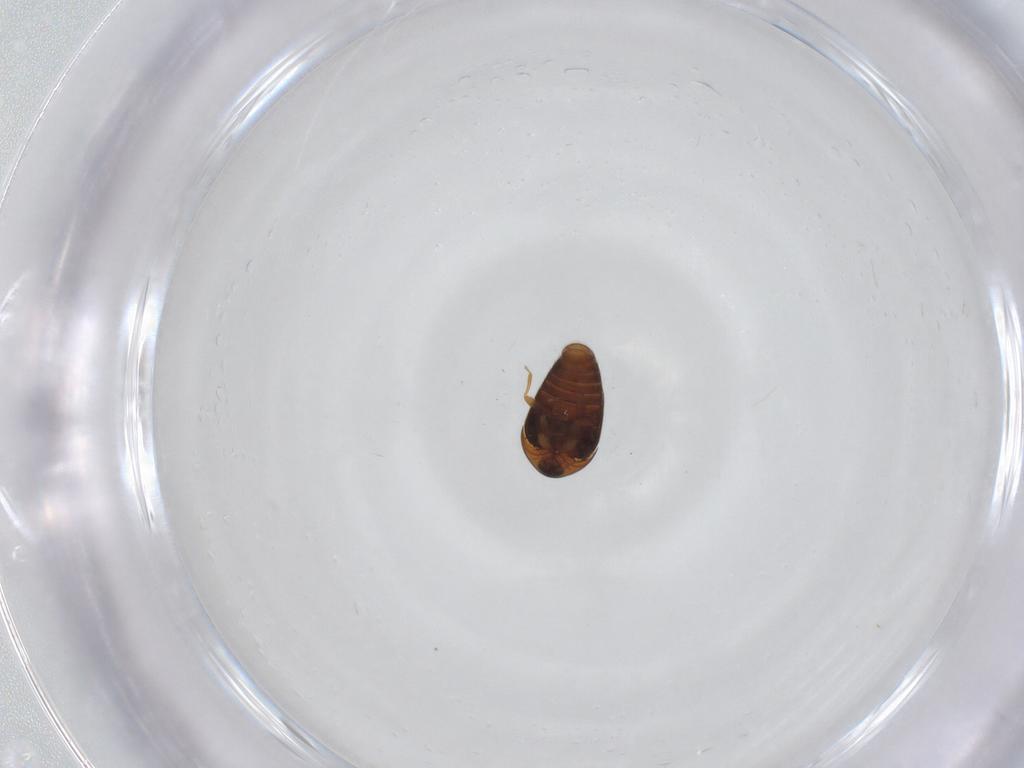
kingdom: Animalia
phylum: Arthropoda
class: Insecta
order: Coleoptera
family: Corylophidae
